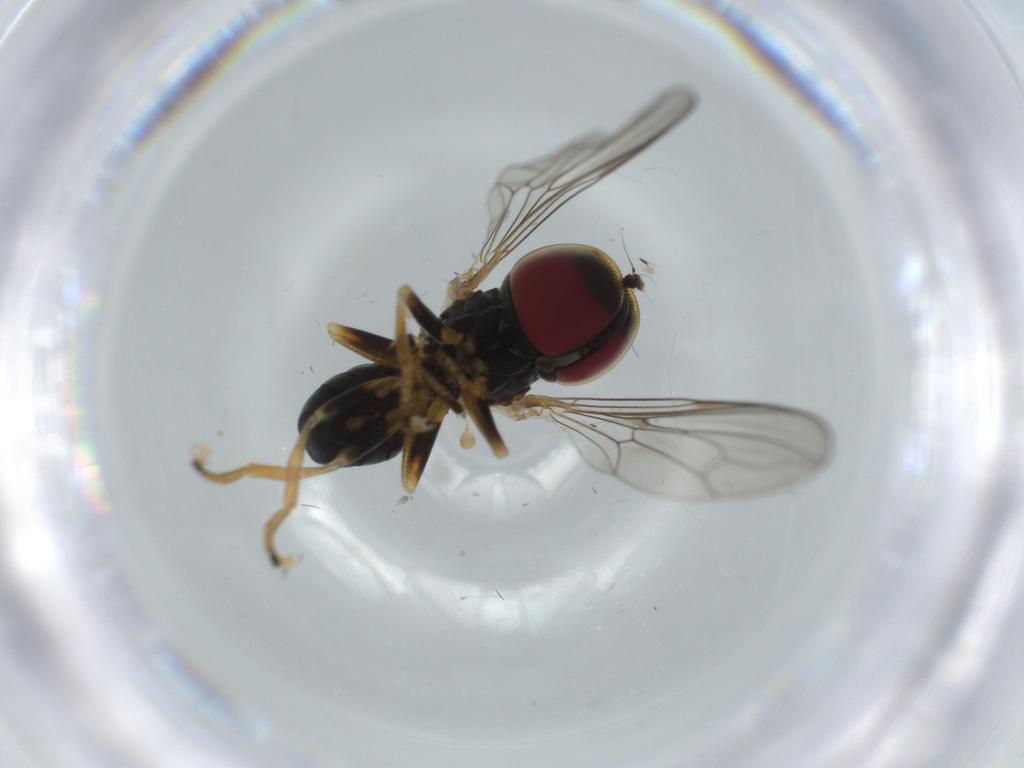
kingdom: Animalia
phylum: Arthropoda
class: Insecta
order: Diptera
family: Pipunculidae
